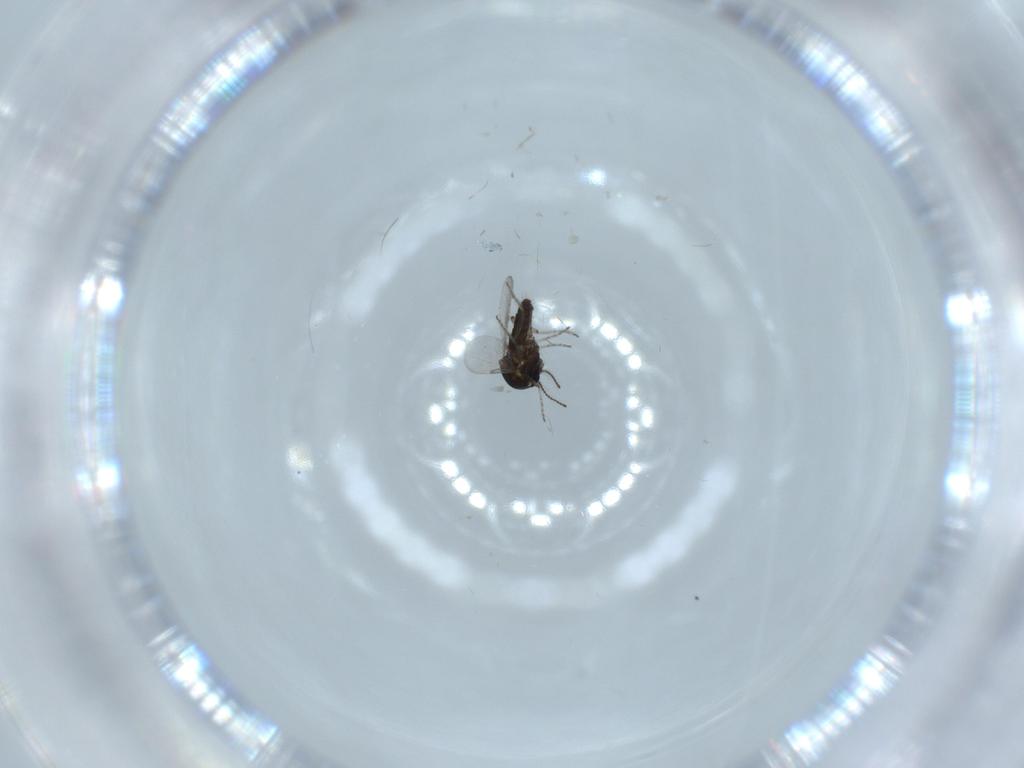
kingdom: Animalia
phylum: Arthropoda
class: Insecta
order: Diptera
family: Ceratopogonidae
